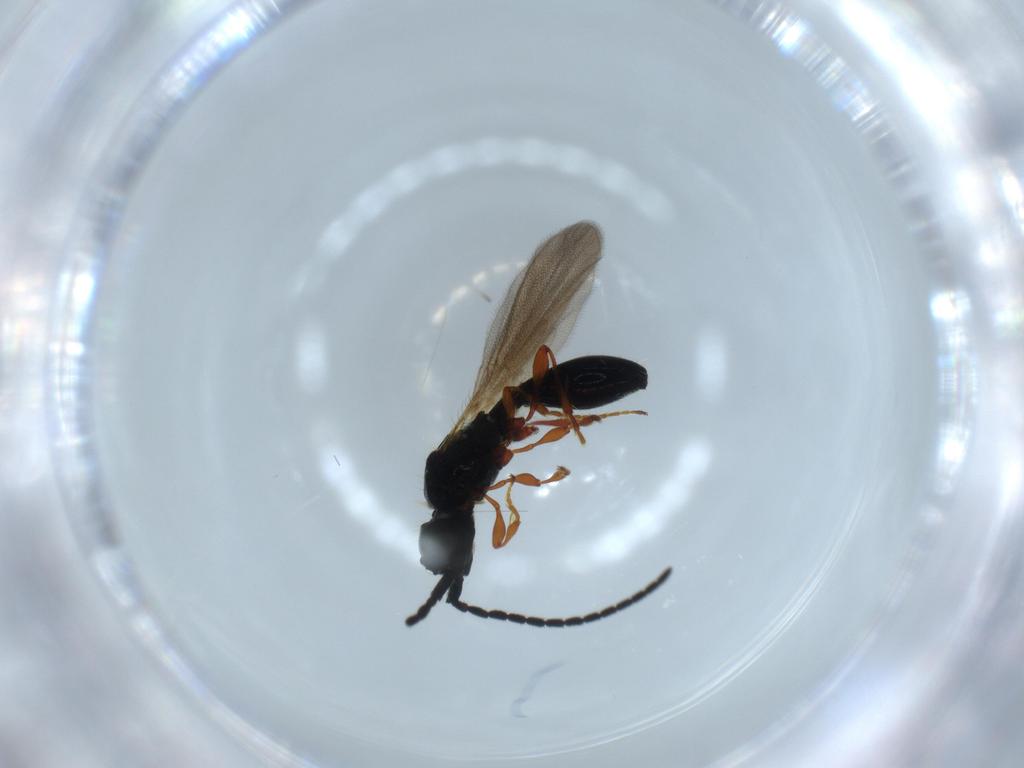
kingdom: Animalia
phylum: Arthropoda
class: Insecta
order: Hymenoptera
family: Diapriidae
